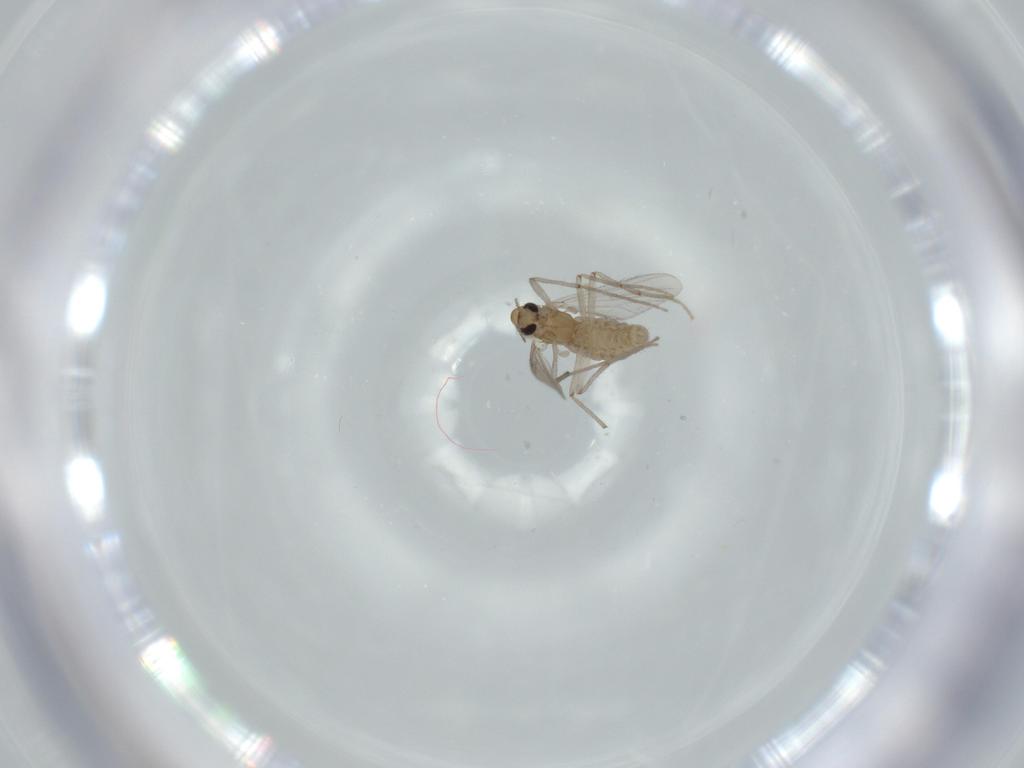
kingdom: Animalia
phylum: Arthropoda
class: Insecta
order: Diptera
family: Chironomidae
